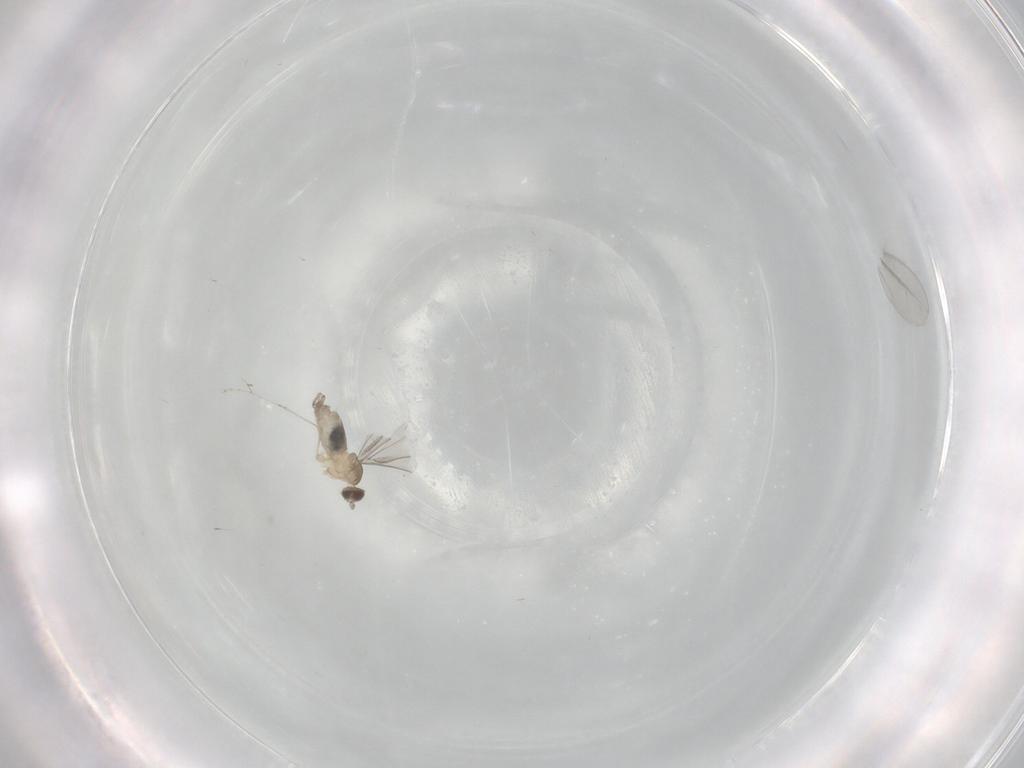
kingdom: Animalia
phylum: Arthropoda
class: Insecta
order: Diptera
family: Cecidomyiidae
